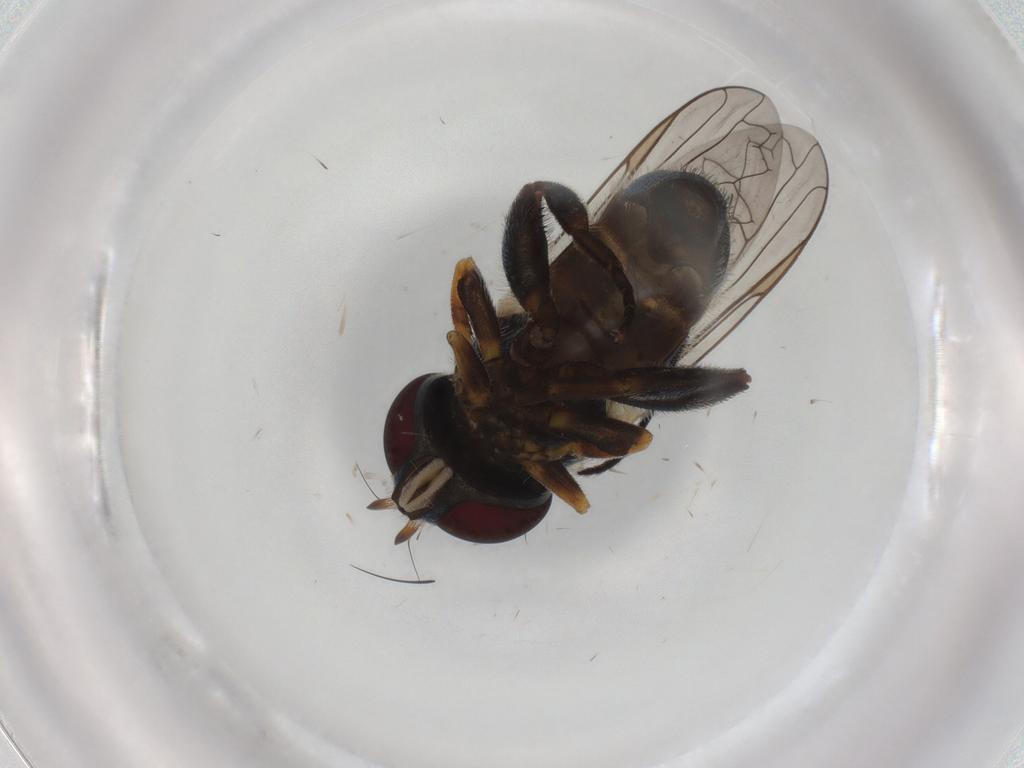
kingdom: Animalia
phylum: Arthropoda
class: Insecta
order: Diptera
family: Syrphidae
